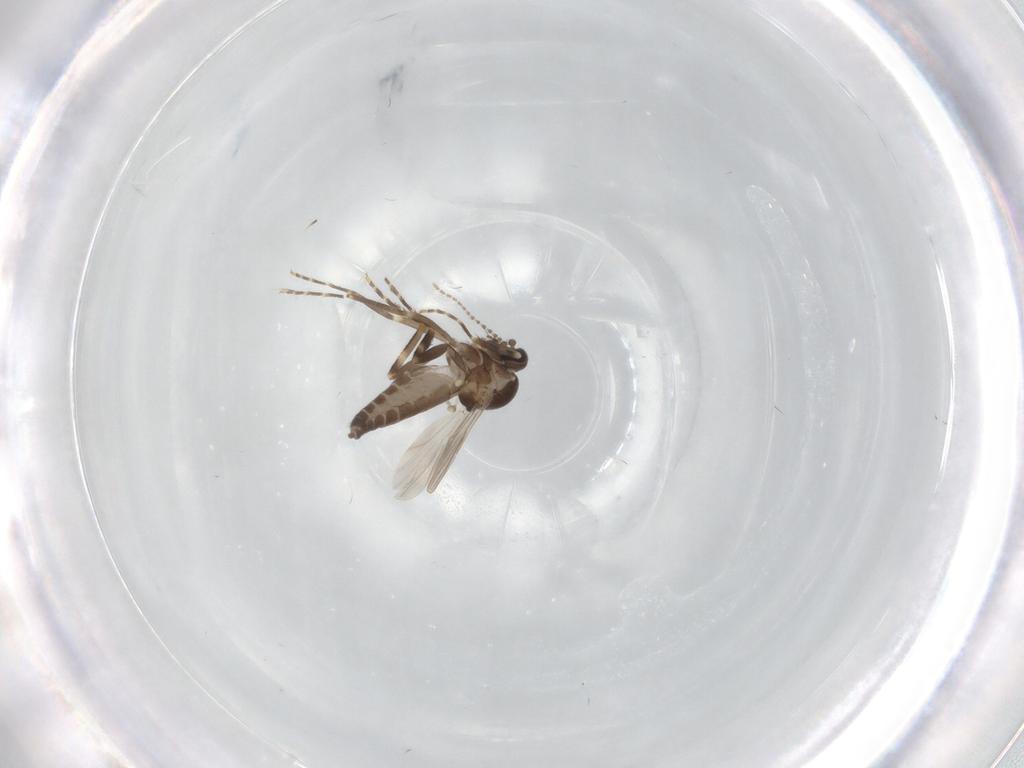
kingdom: Animalia
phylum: Arthropoda
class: Insecta
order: Diptera
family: Ceratopogonidae
